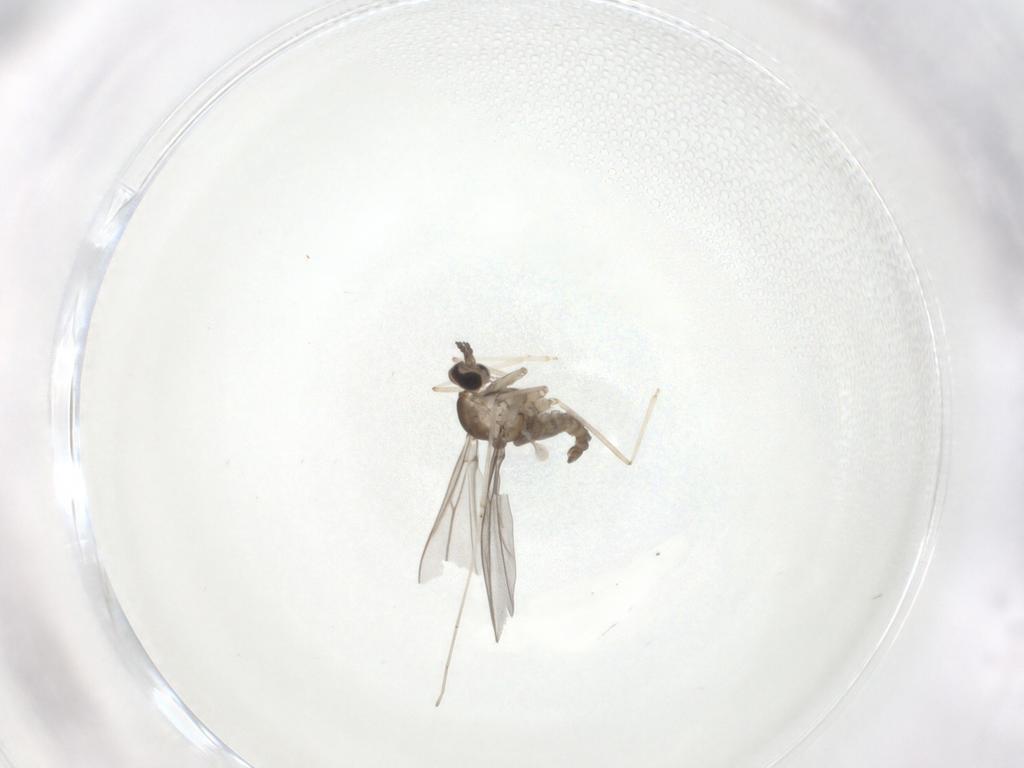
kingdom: Animalia
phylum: Arthropoda
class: Insecta
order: Diptera
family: Cecidomyiidae
